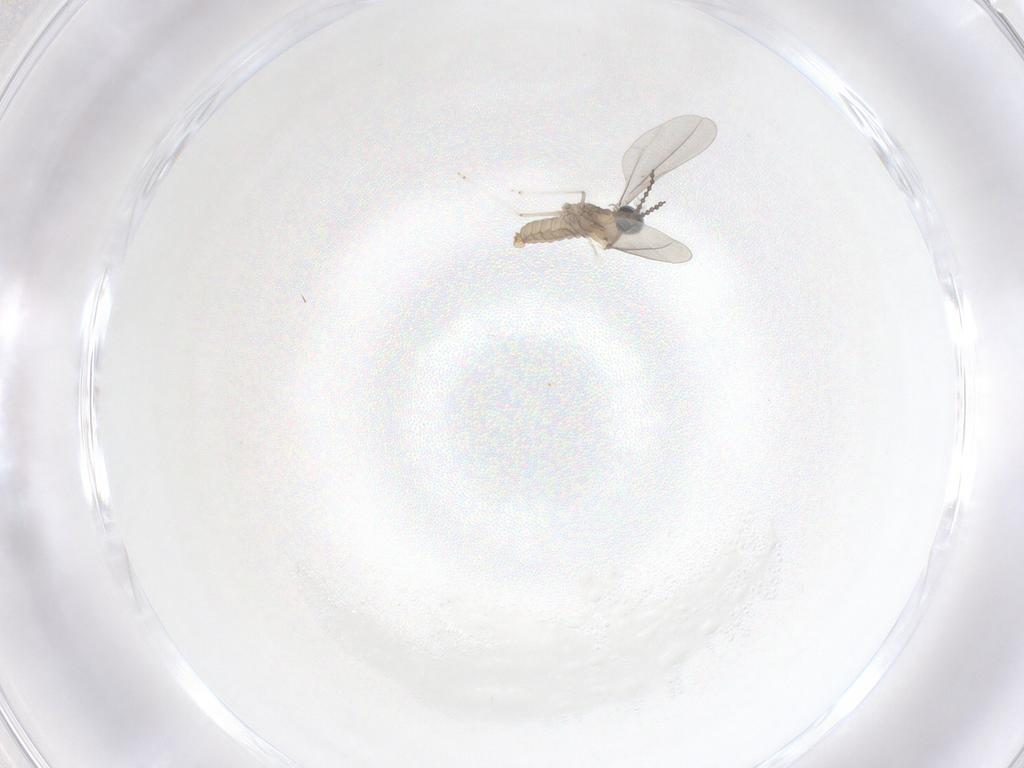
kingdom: Animalia
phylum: Arthropoda
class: Insecta
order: Diptera
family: Cecidomyiidae
